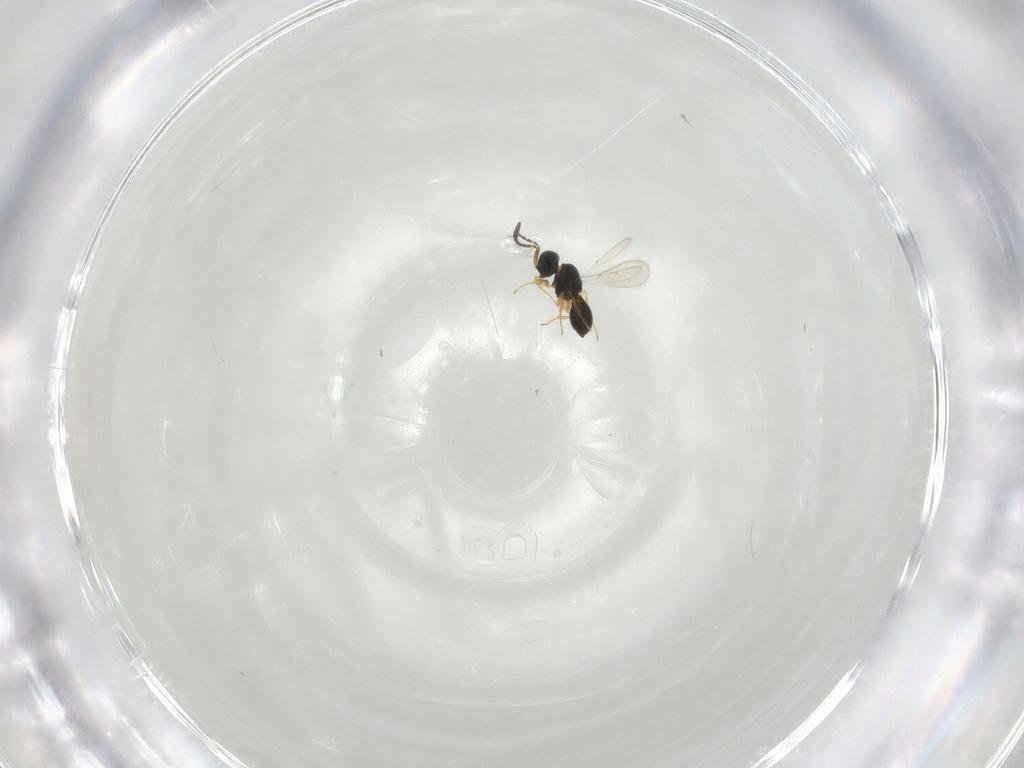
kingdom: Animalia
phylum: Arthropoda
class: Insecta
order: Hymenoptera
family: Scelionidae
